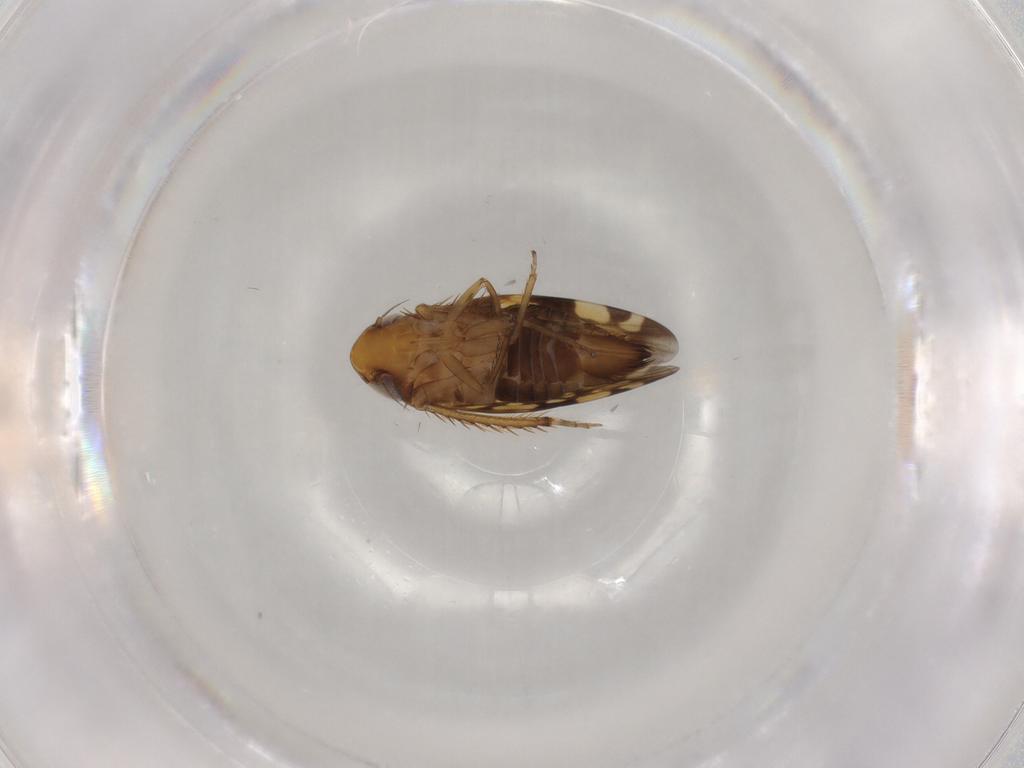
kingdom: Animalia
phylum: Arthropoda
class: Insecta
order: Hemiptera
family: Cicadellidae
